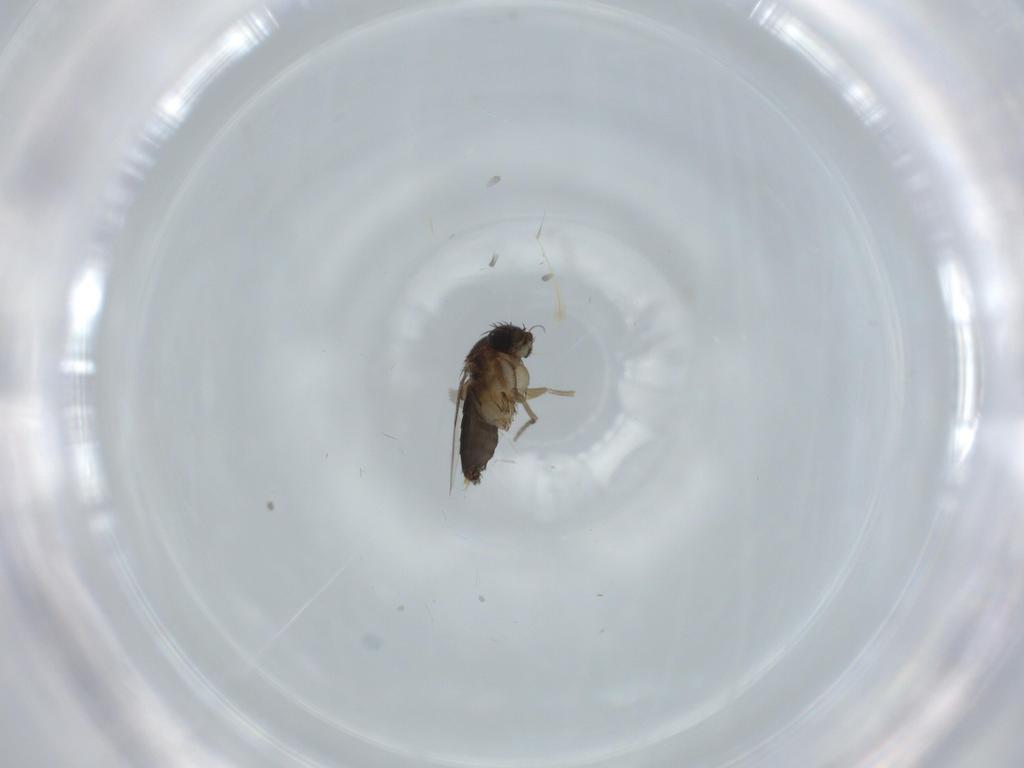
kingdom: Animalia
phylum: Arthropoda
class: Insecta
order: Diptera
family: Phoridae
